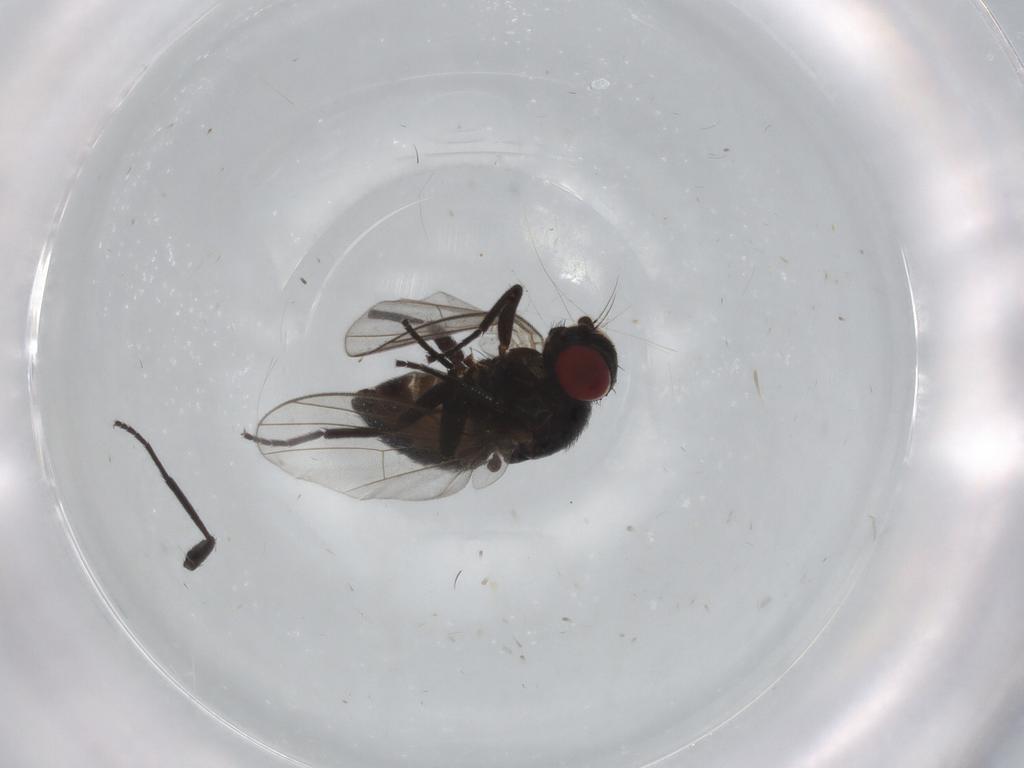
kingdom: Animalia
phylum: Arthropoda
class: Insecta
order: Diptera
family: Agromyzidae
